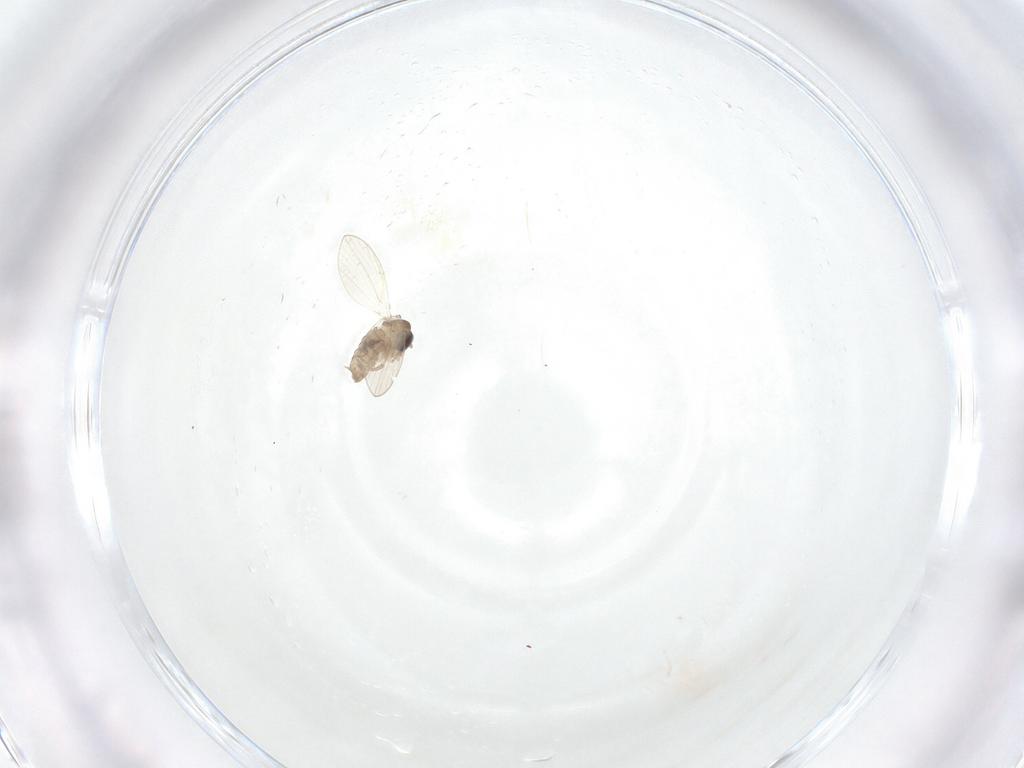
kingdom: Animalia
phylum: Arthropoda
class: Insecta
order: Diptera
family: Psychodidae
